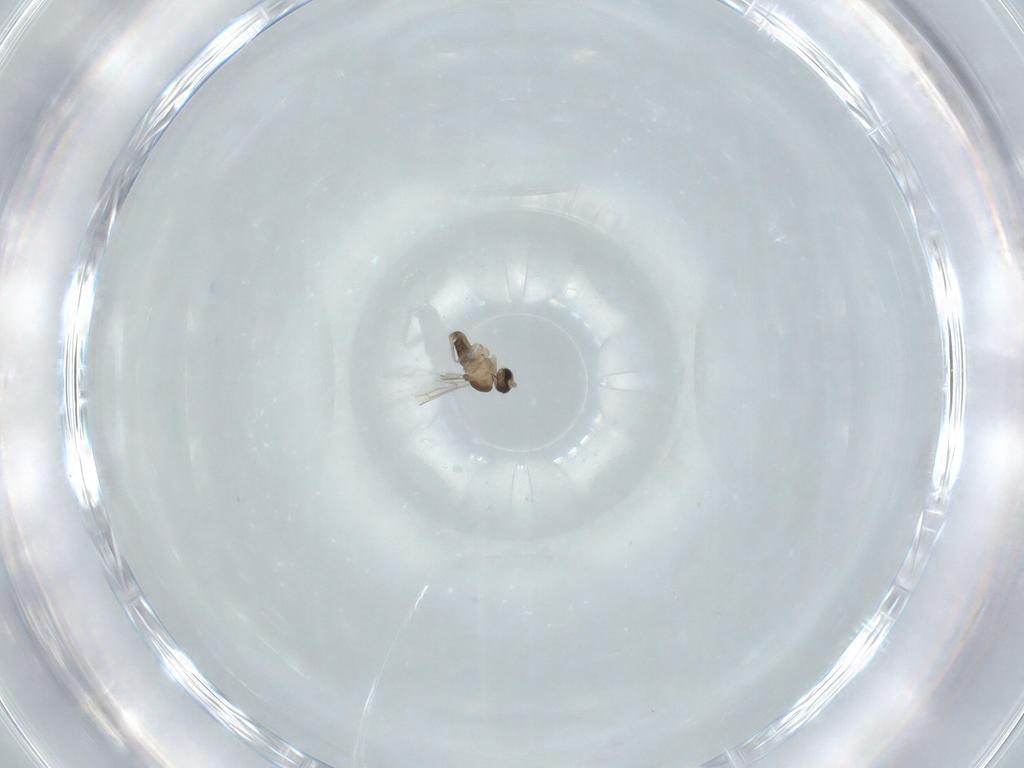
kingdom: Animalia
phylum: Arthropoda
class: Insecta
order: Diptera
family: Cecidomyiidae
